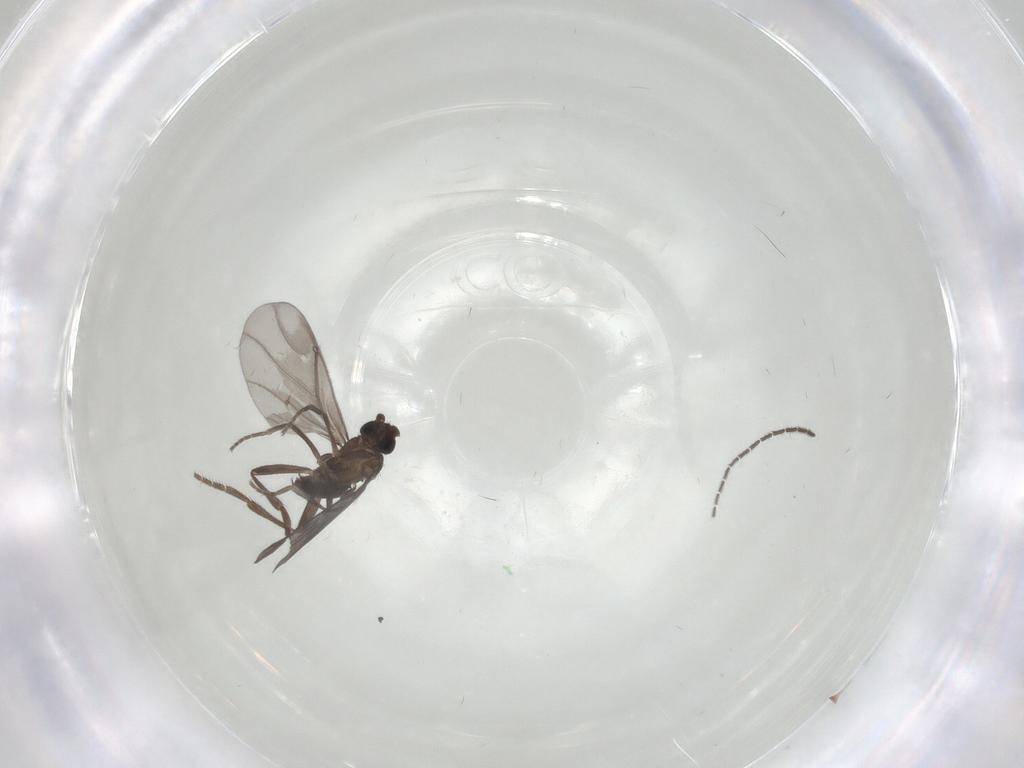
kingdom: Animalia
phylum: Arthropoda
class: Insecta
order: Diptera
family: Phoridae
